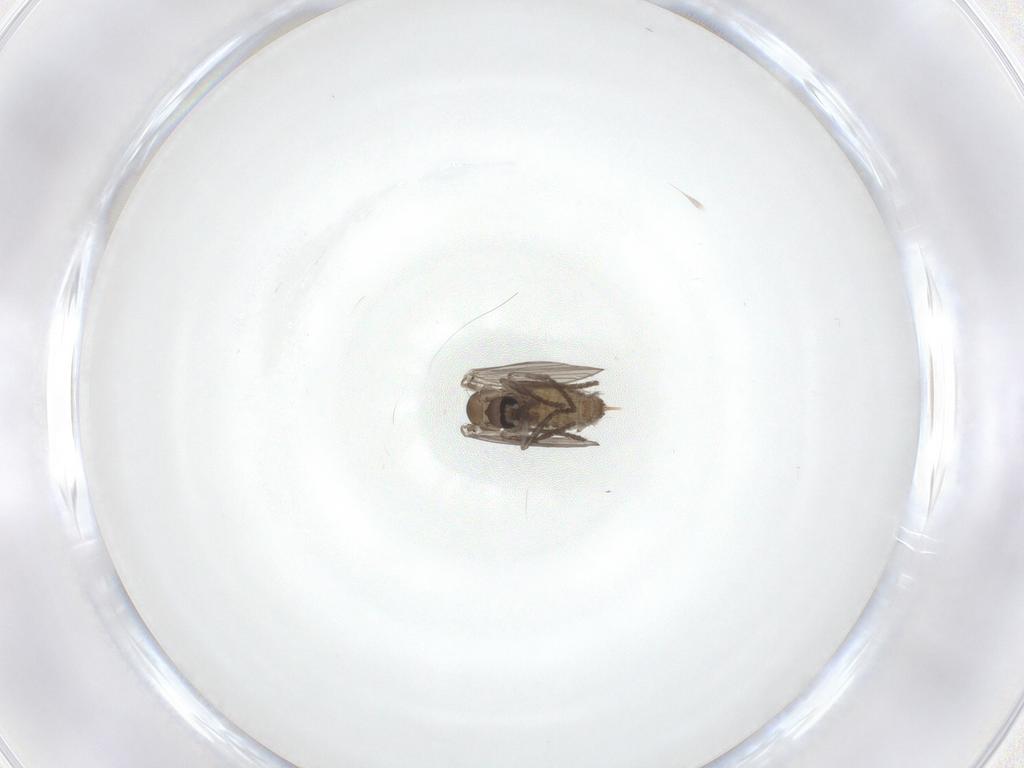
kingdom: Animalia
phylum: Arthropoda
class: Insecta
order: Diptera
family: Psychodidae
